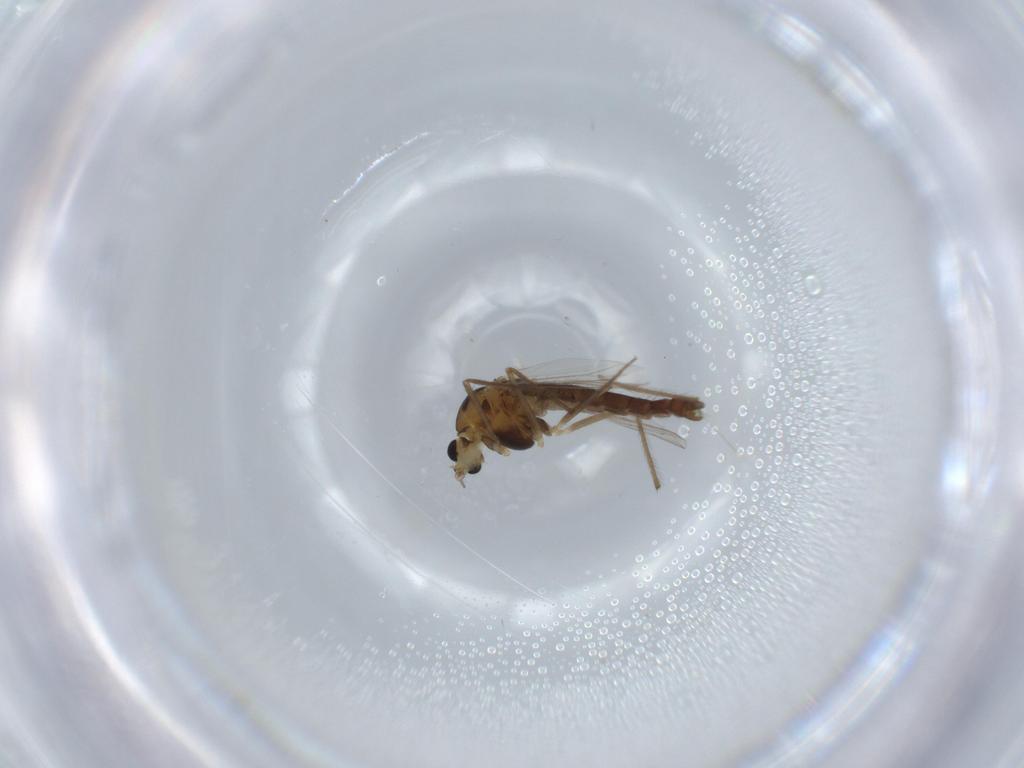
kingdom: Animalia
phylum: Arthropoda
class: Insecta
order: Diptera
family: Chironomidae
